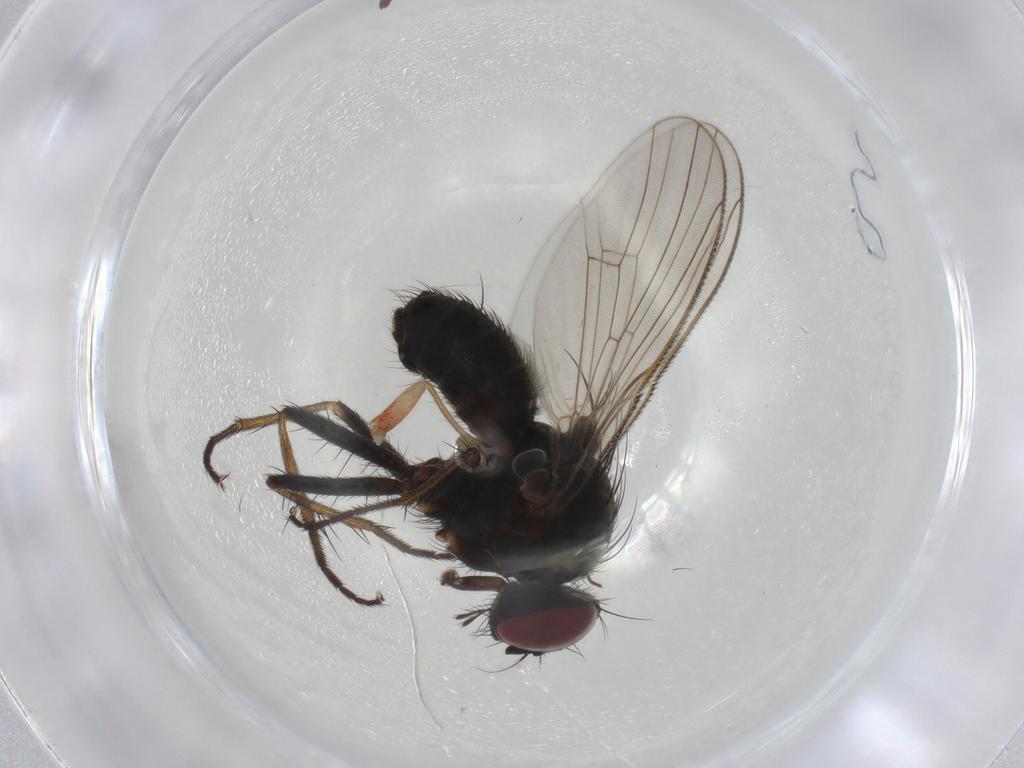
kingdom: Animalia
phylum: Arthropoda
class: Insecta
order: Diptera
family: Muscidae
